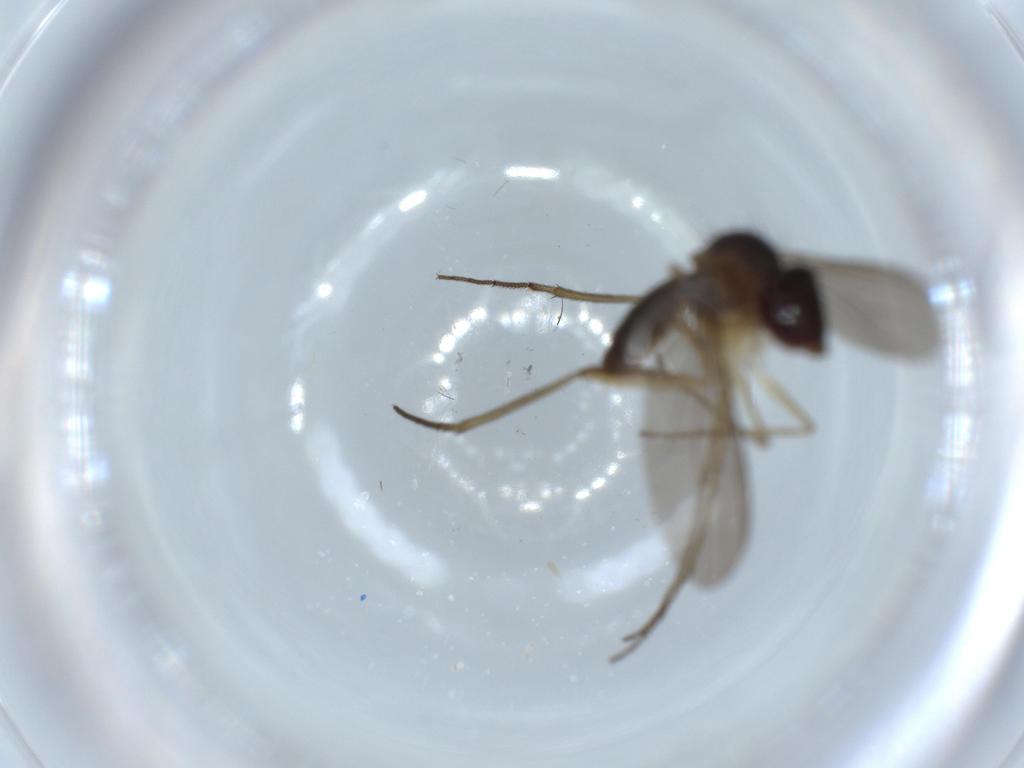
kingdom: Animalia
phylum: Arthropoda
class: Insecta
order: Diptera
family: Dolichopodidae
